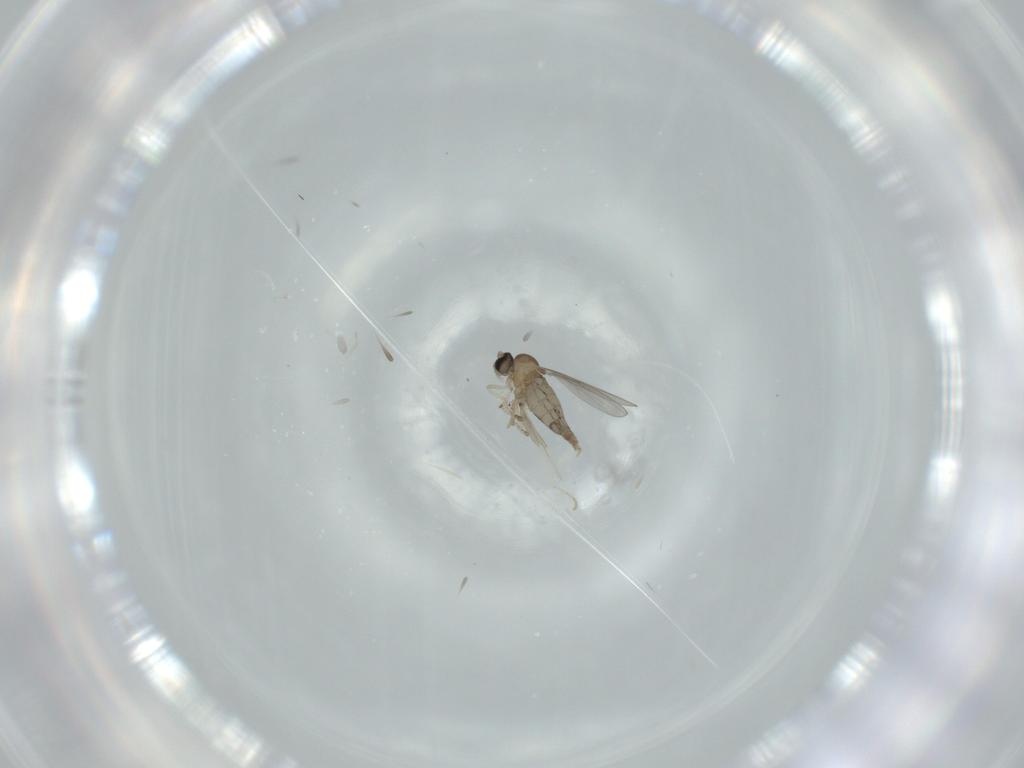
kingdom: Animalia
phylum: Arthropoda
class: Insecta
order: Diptera
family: Cecidomyiidae
